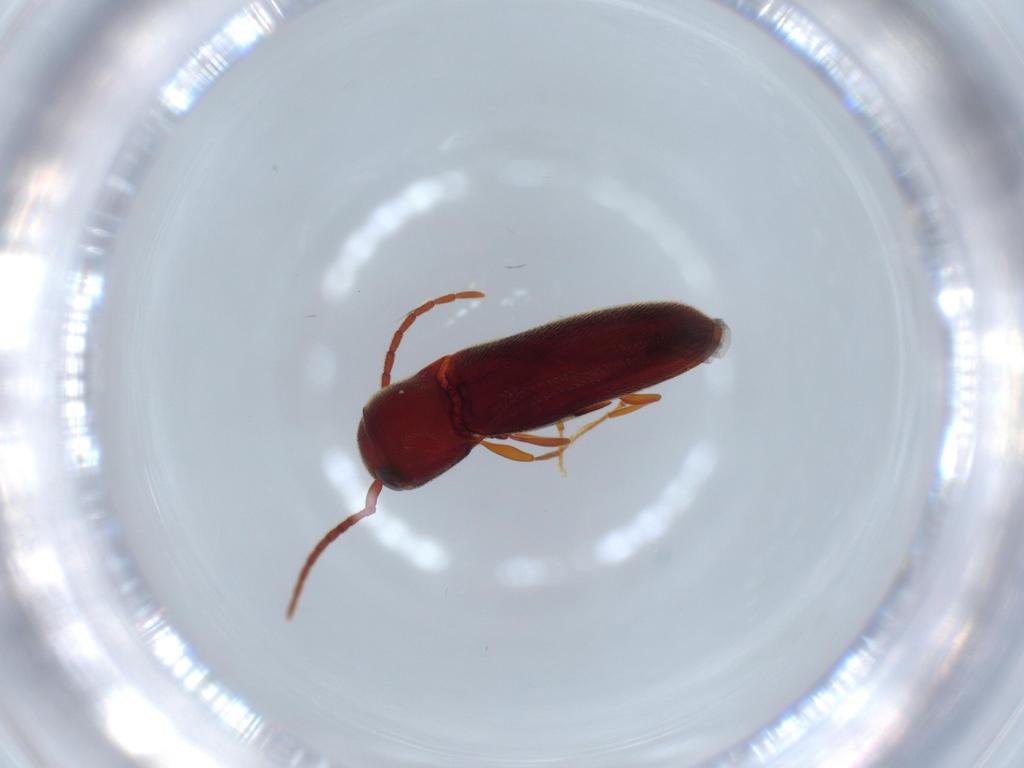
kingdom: Animalia
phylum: Arthropoda
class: Insecta
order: Coleoptera
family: Eucnemidae
